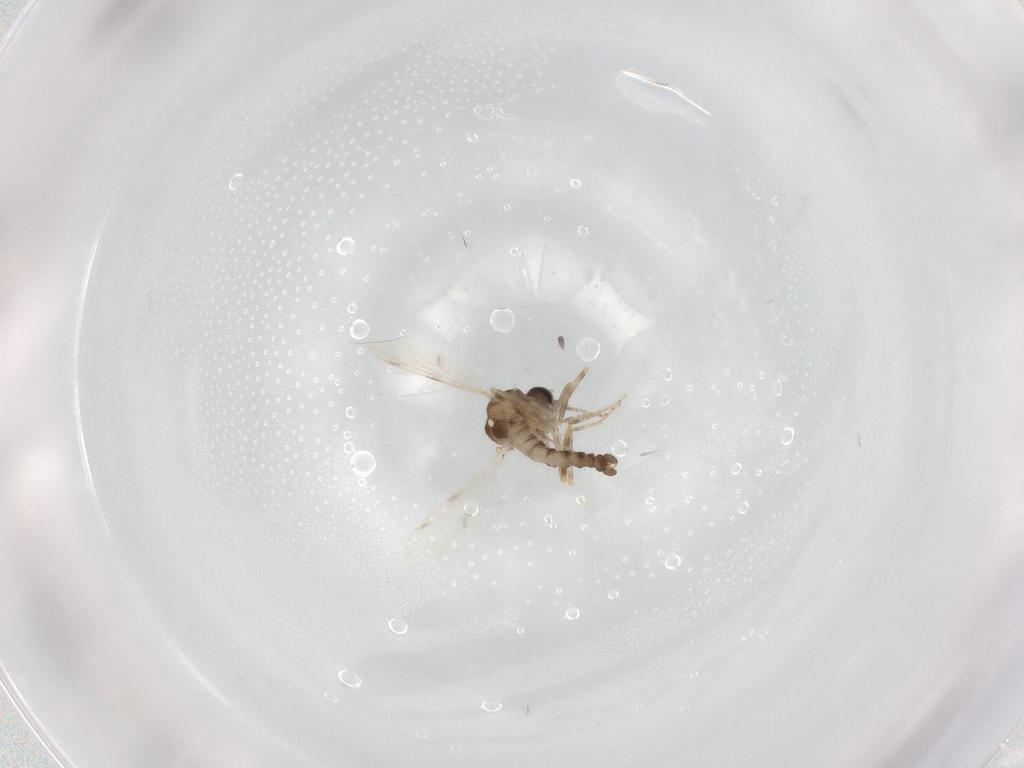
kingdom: Animalia
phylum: Arthropoda
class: Insecta
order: Diptera
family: Ceratopogonidae
